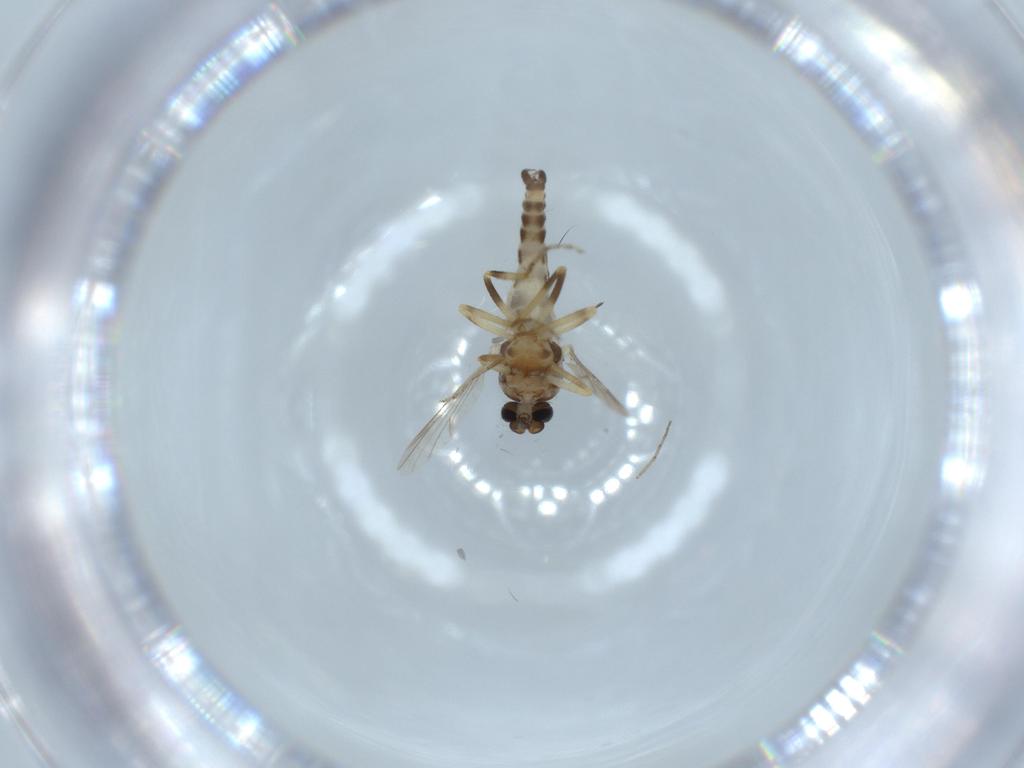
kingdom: Animalia
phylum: Arthropoda
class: Insecta
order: Diptera
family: Ceratopogonidae
